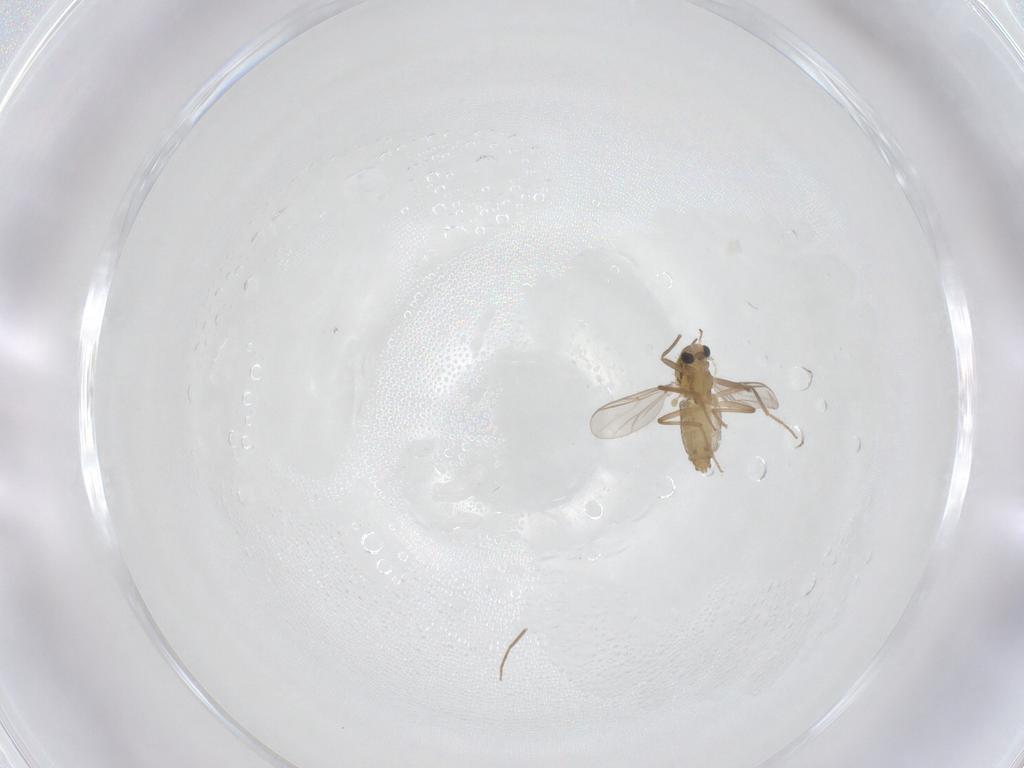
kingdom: Animalia
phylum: Arthropoda
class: Insecta
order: Diptera
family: Chironomidae
